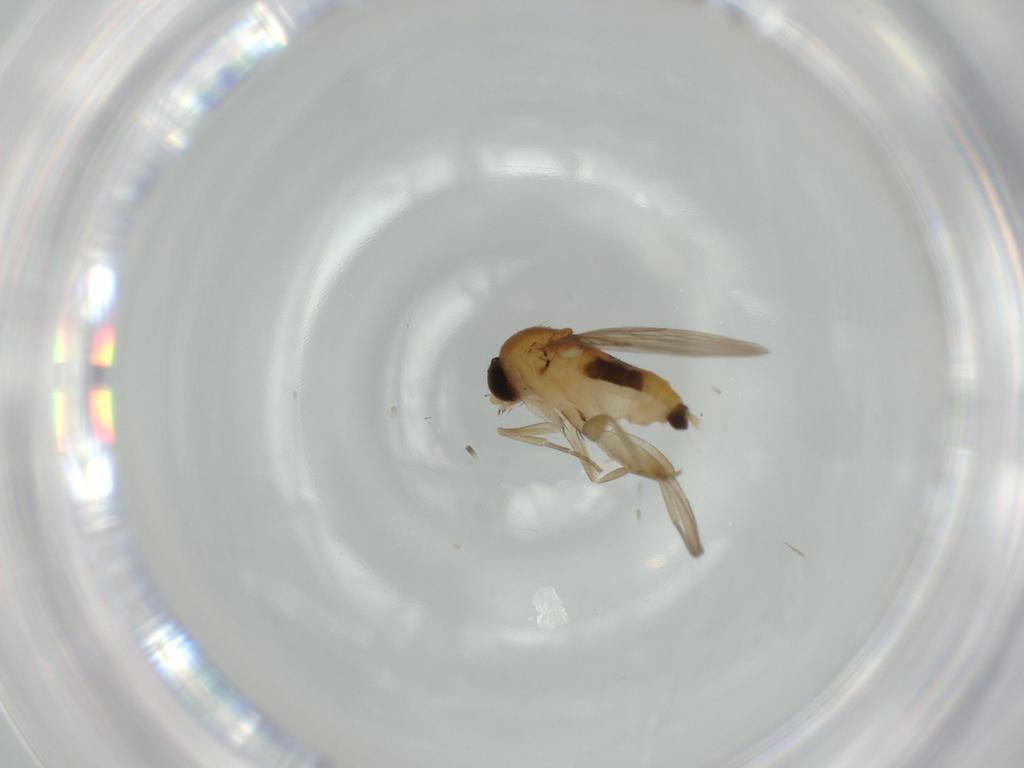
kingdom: Animalia
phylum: Arthropoda
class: Insecta
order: Diptera
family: Phoridae
